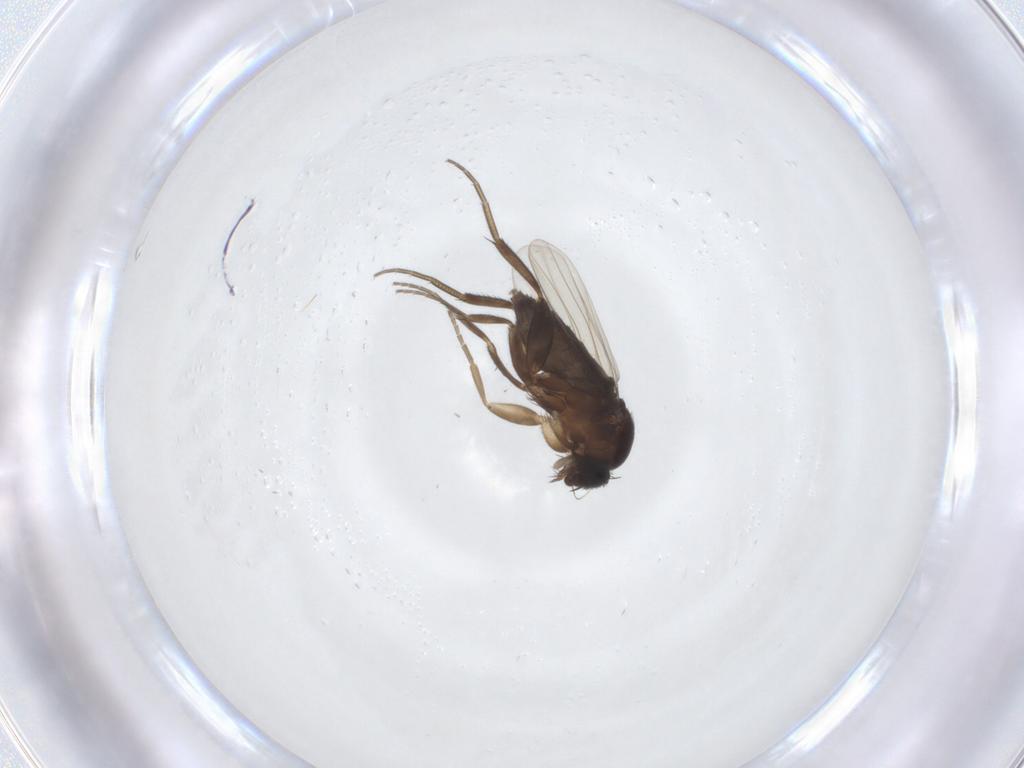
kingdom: Animalia
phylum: Arthropoda
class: Insecta
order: Diptera
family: Phoridae
